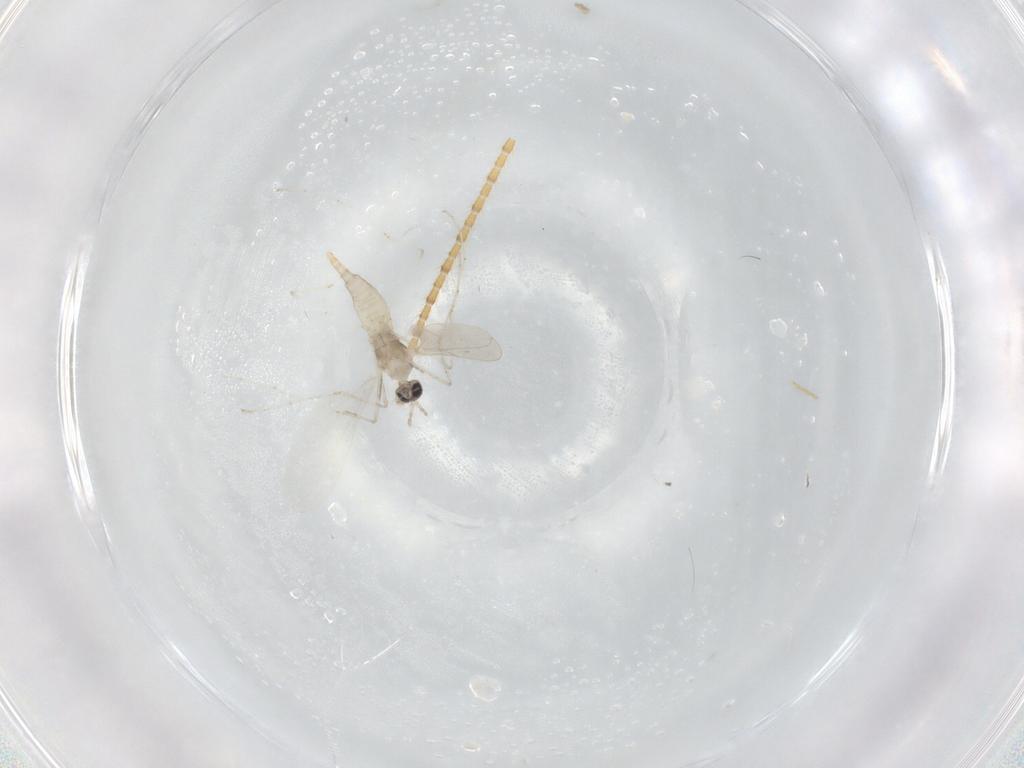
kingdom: Animalia
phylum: Arthropoda
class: Insecta
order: Diptera
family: Cecidomyiidae
